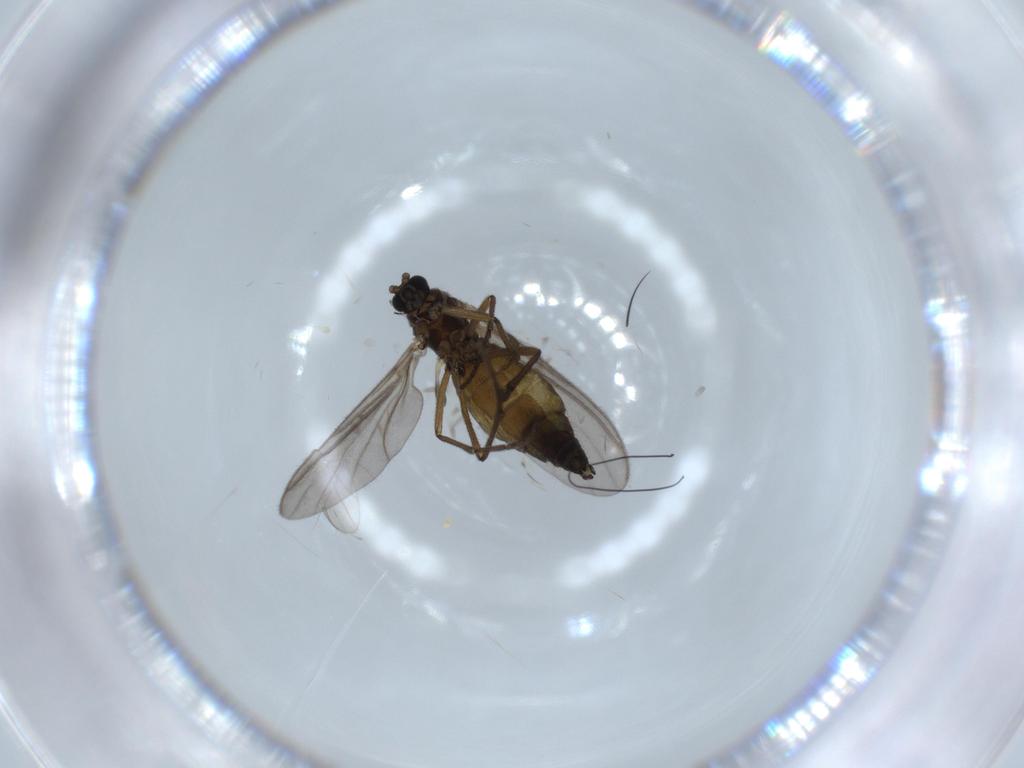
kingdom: Animalia
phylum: Arthropoda
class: Insecta
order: Diptera
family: Sciaridae
